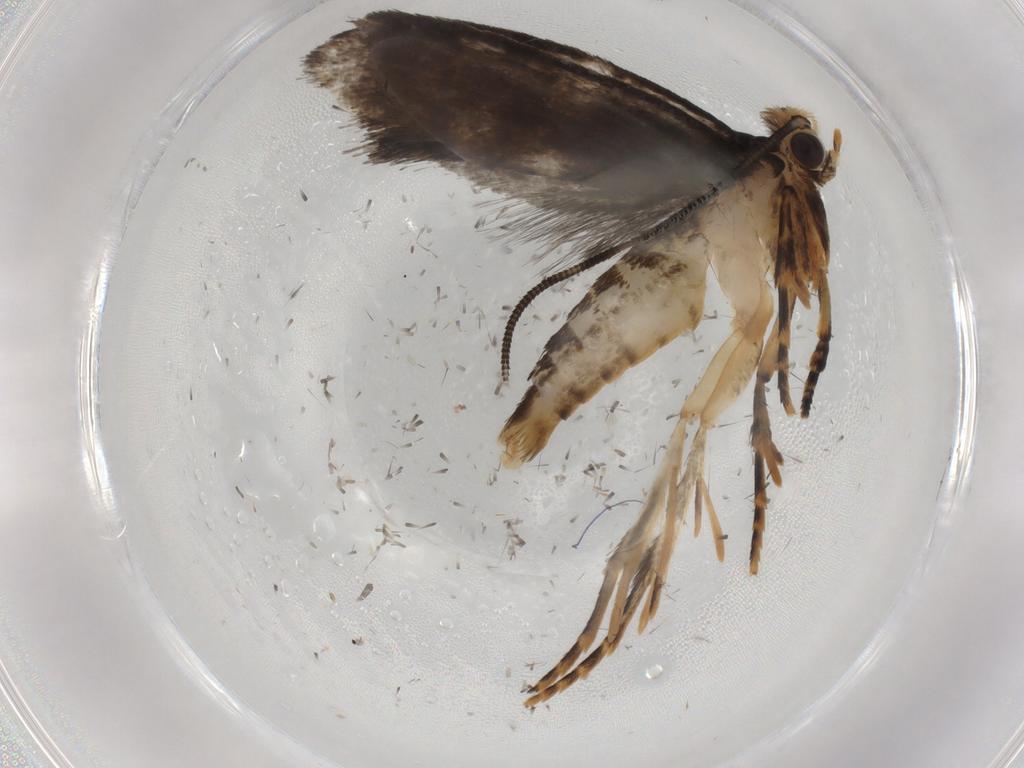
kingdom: Animalia
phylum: Arthropoda
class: Insecta
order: Lepidoptera
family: Tineidae
